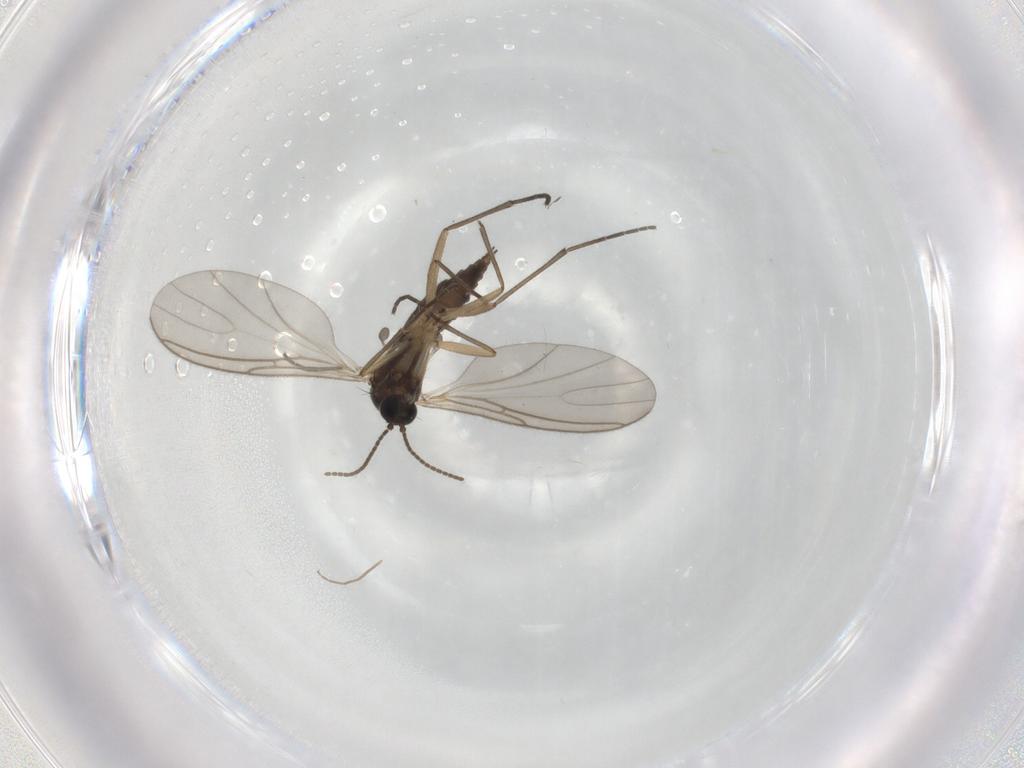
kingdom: Animalia
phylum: Arthropoda
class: Insecta
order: Diptera
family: Sciaridae
